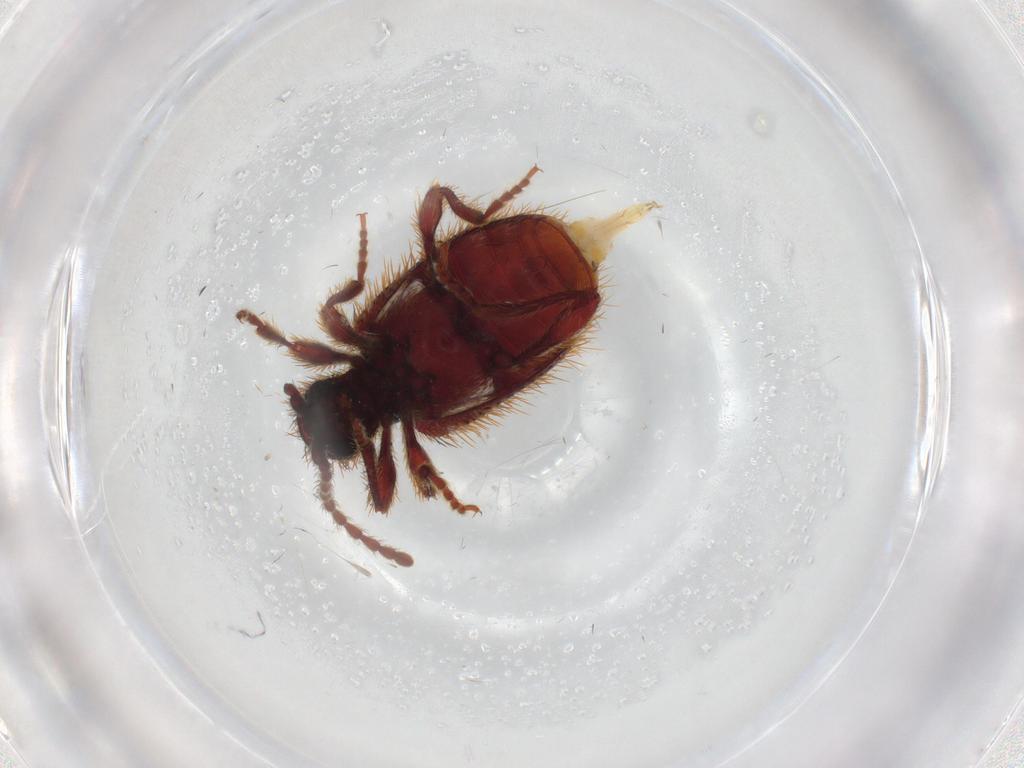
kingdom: Animalia
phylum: Arthropoda
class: Insecta
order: Coleoptera
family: Ptinidae
